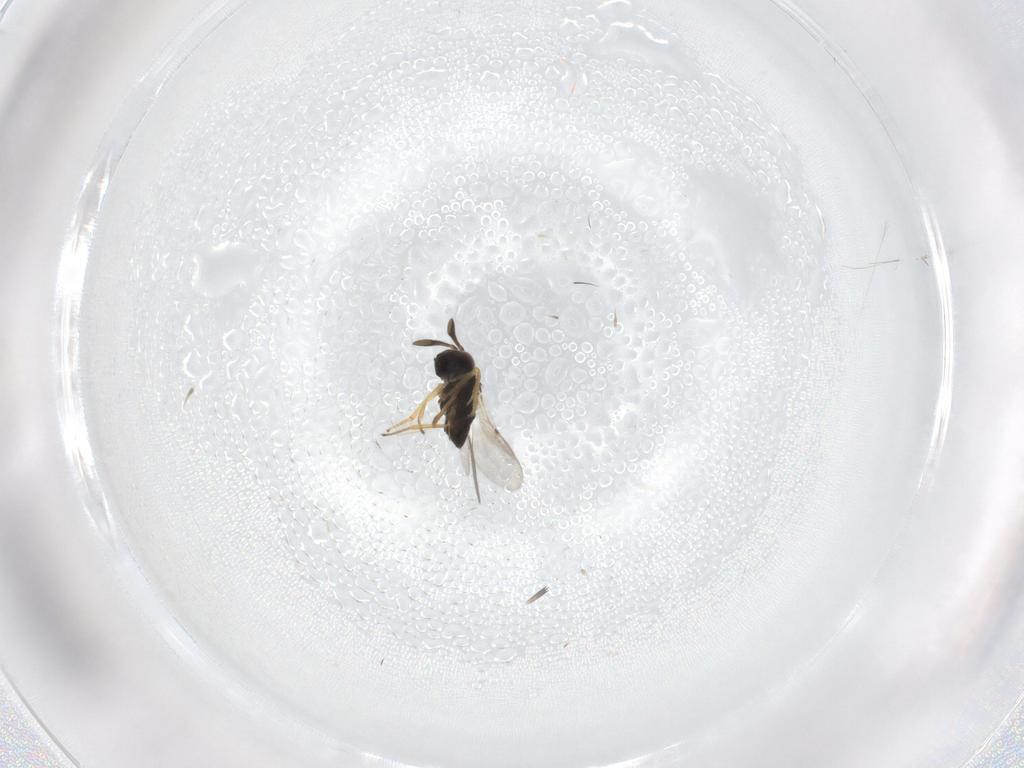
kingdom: Animalia
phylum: Arthropoda
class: Insecta
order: Hymenoptera
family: Encyrtidae
